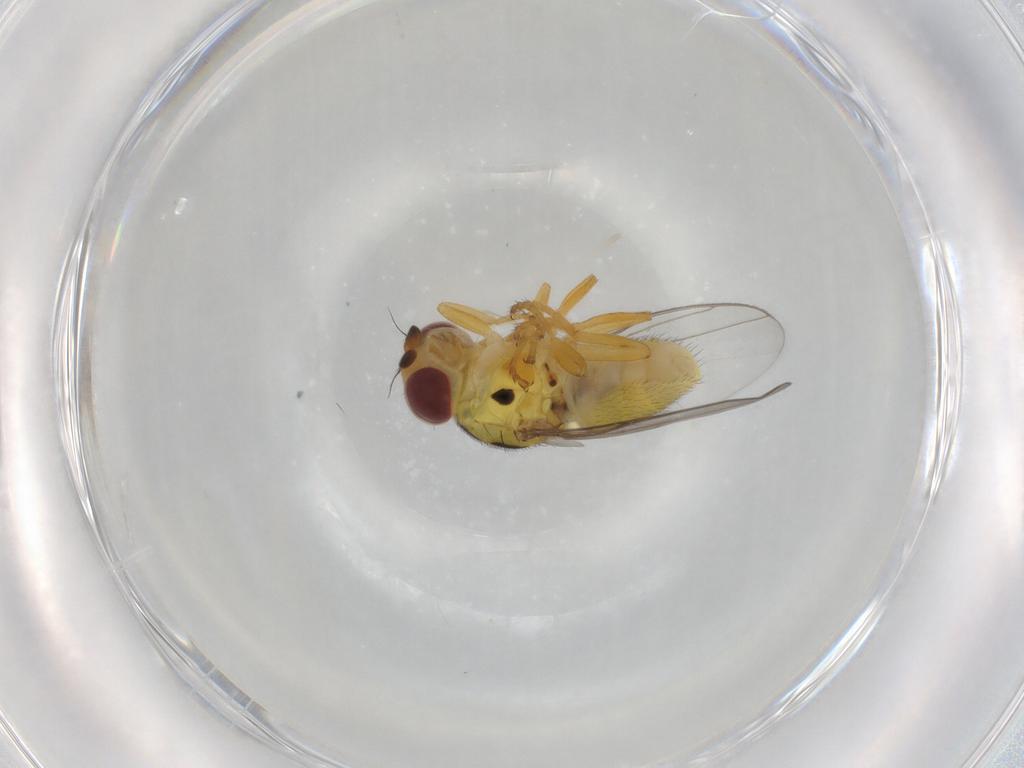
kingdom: Animalia
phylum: Arthropoda
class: Insecta
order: Diptera
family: Chloropidae
